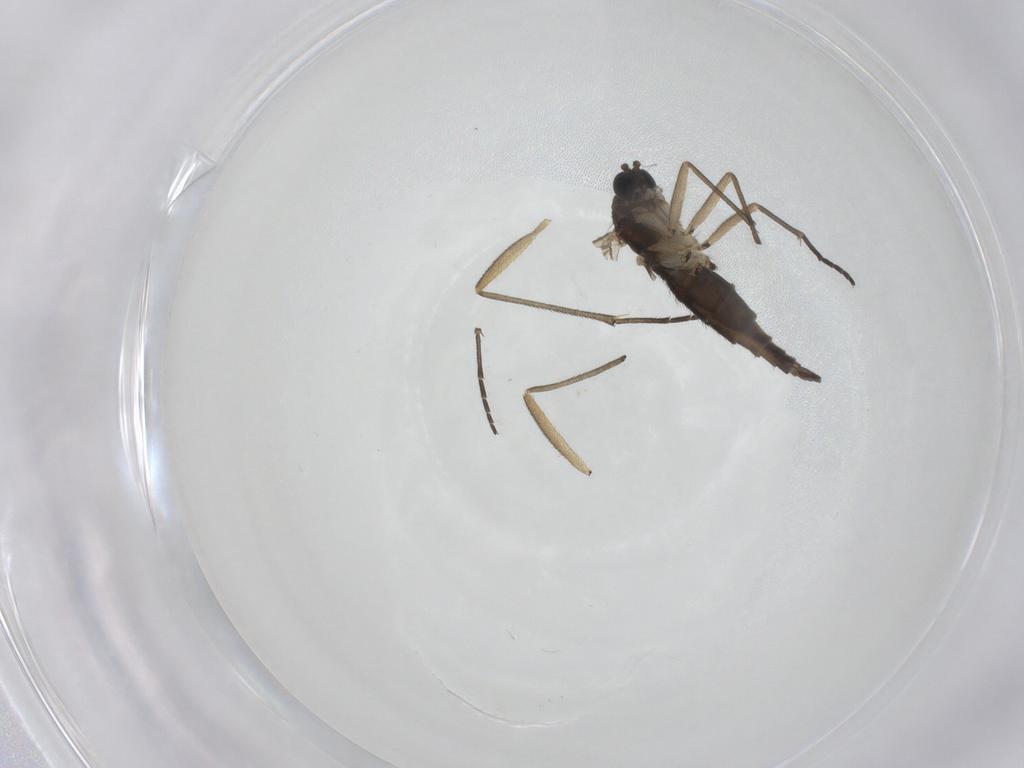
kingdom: Animalia
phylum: Arthropoda
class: Insecta
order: Diptera
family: Sciaridae
